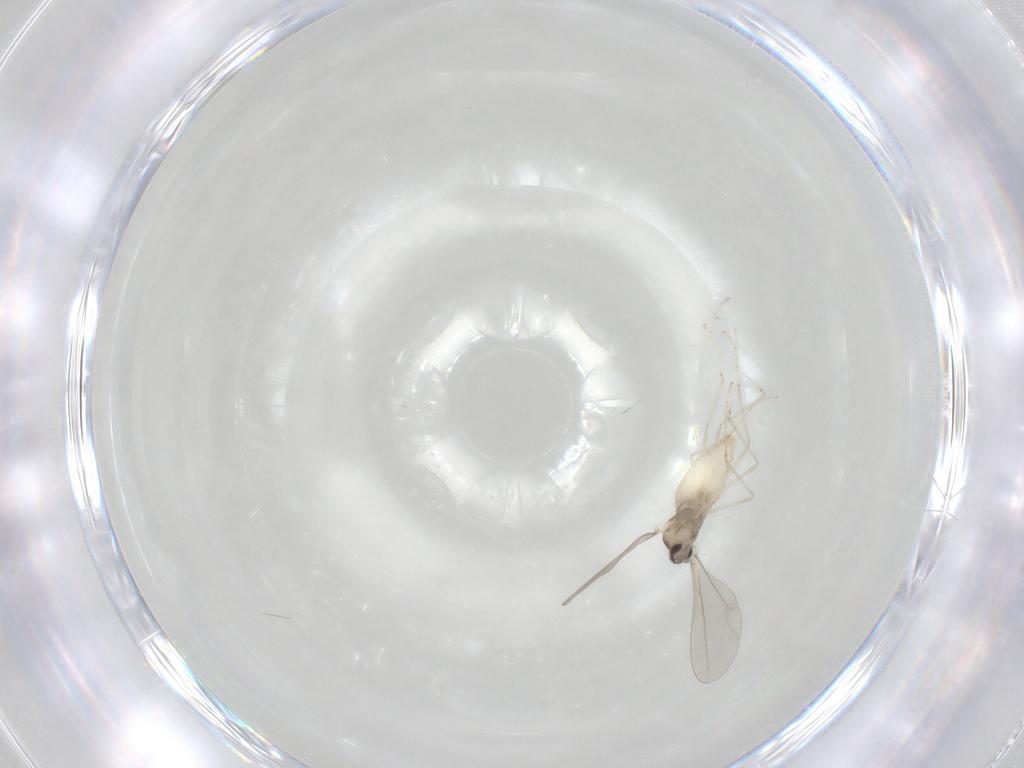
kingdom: Animalia
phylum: Arthropoda
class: Insecta
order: Diptera
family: Cecidomyiidae
